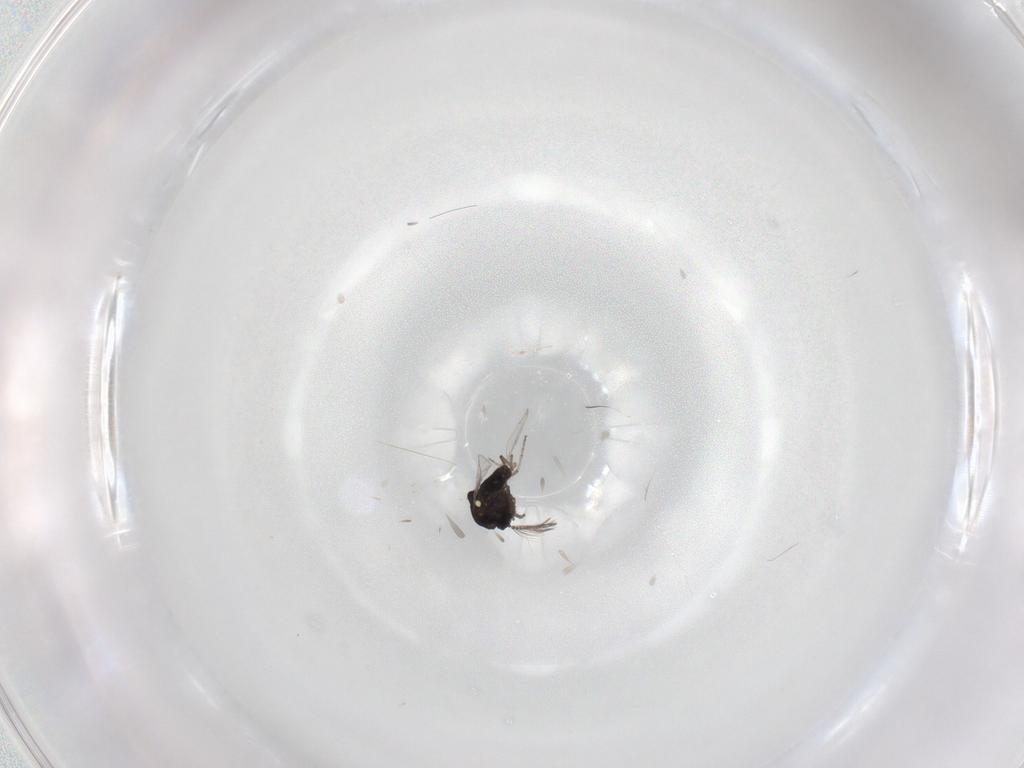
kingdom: Animalia
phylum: Arthropoda
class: Insecta
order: Diptera
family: Ceratopogonidae
